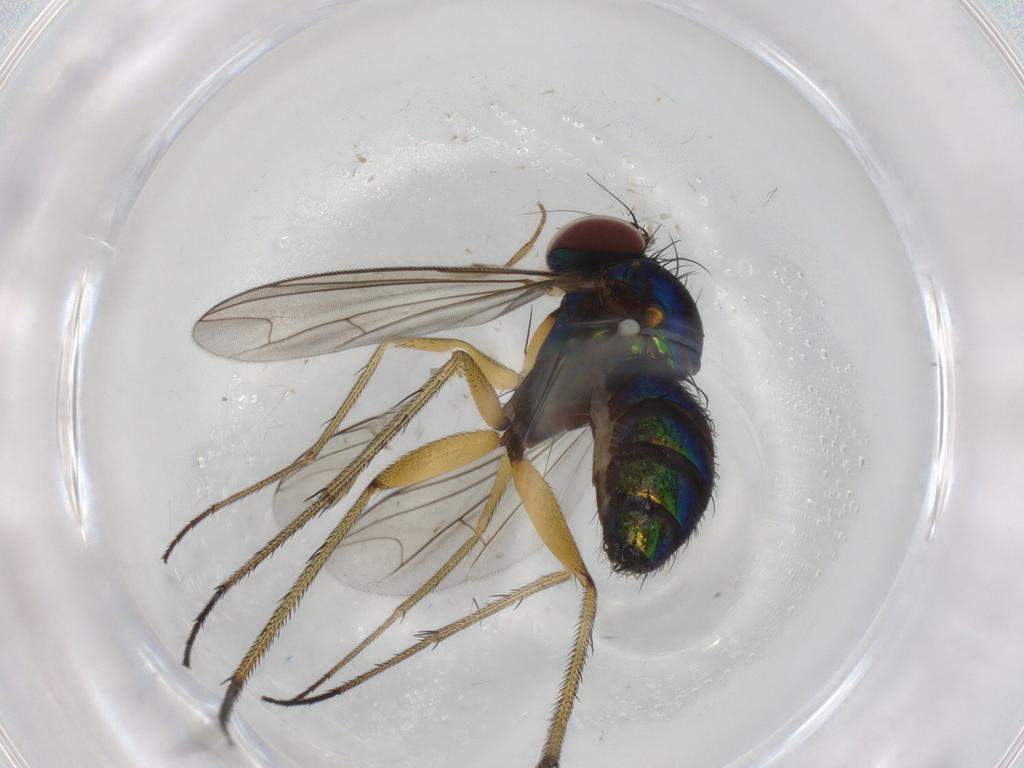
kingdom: Animalia
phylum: Arthropoda
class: Insecta
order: Diptera
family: Dolichopodidae
